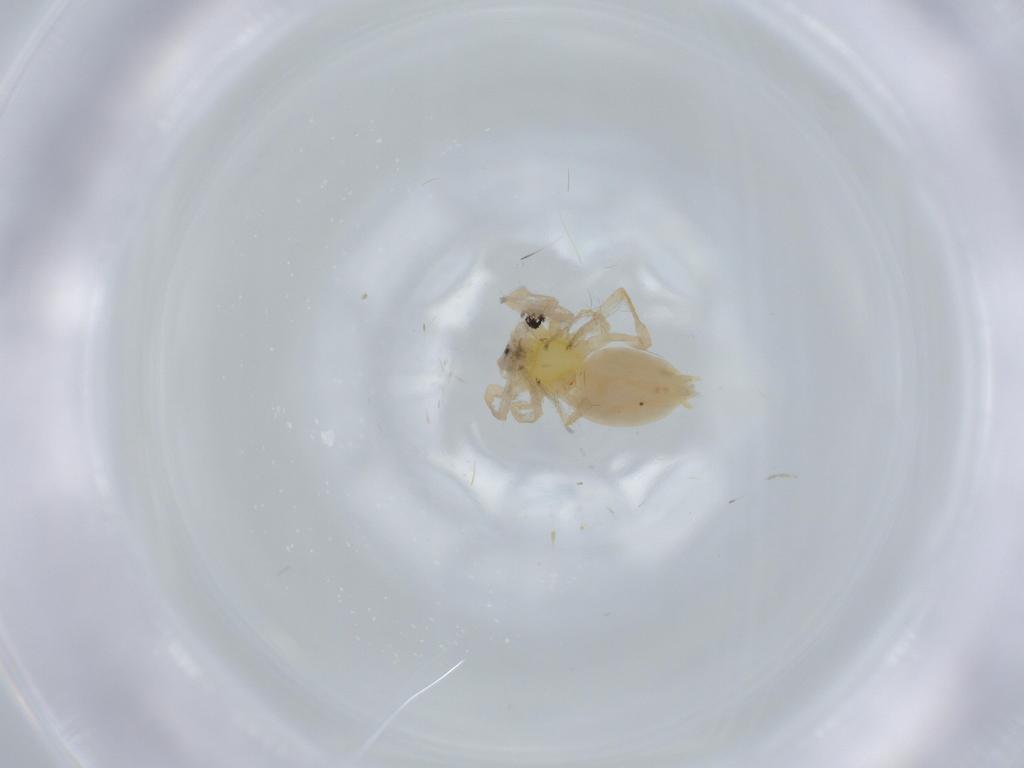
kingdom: Animalia
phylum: Arthropoda
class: Arachnida
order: Araneae
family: Anyphaenidae
